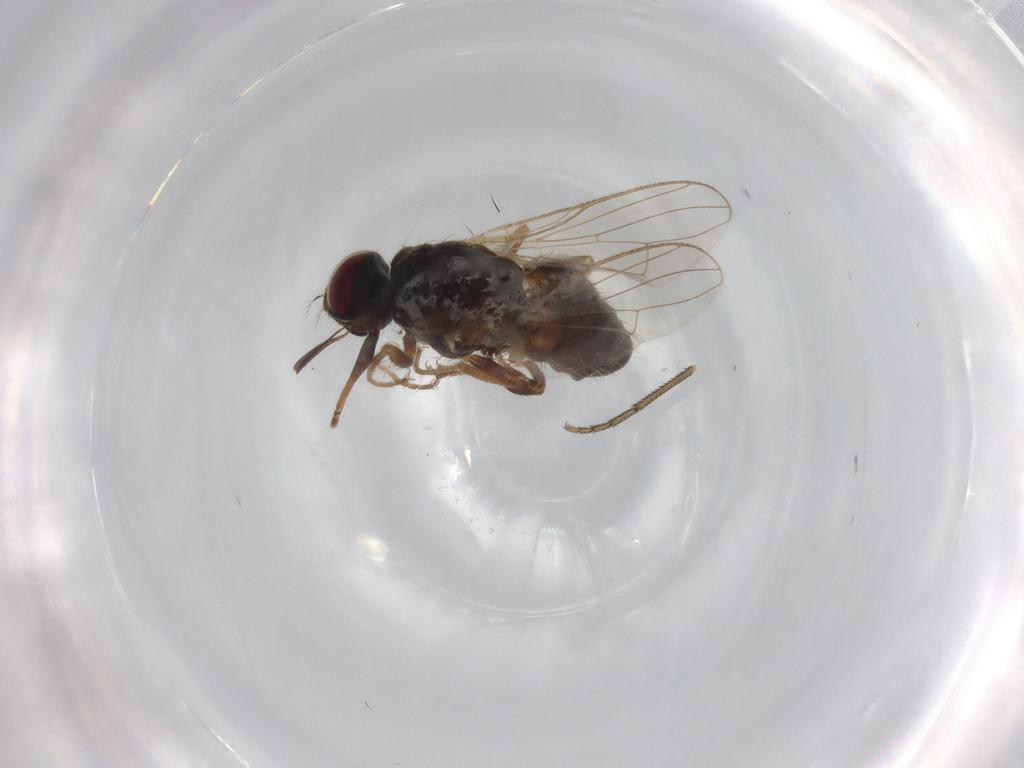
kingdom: Animalia
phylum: Arthropoda
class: Insecta
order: Diptera
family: Muscidae
